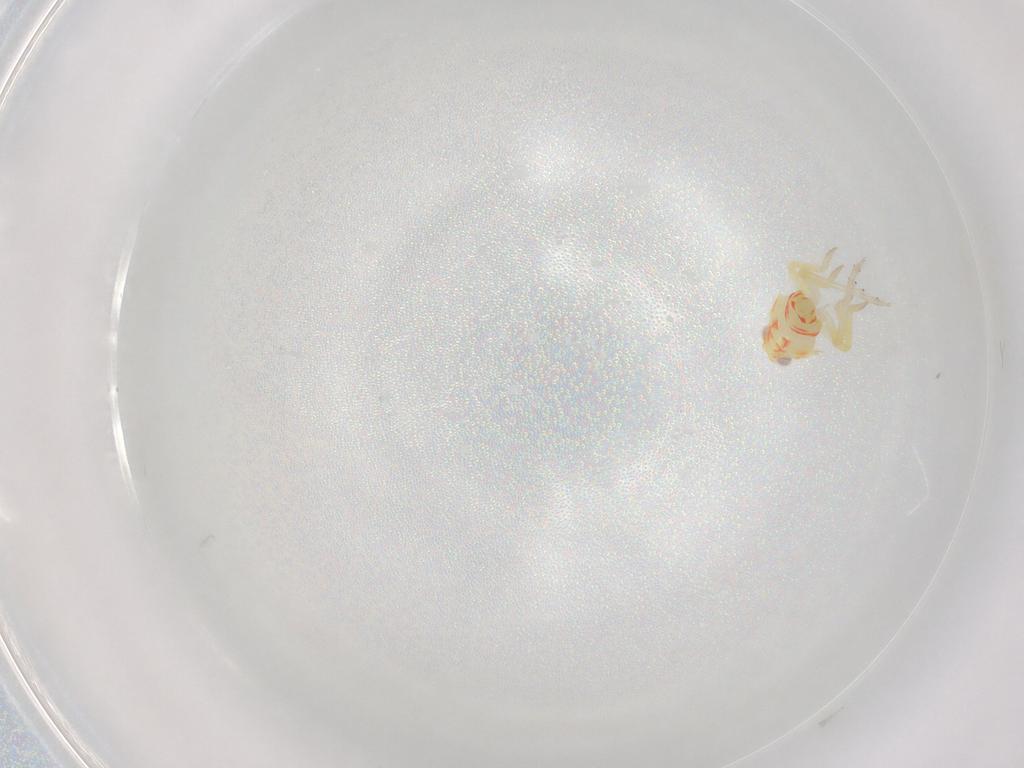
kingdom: Animalia
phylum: Arthropoda
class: Insecta
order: Hemiptera
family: Tropiduchidae
